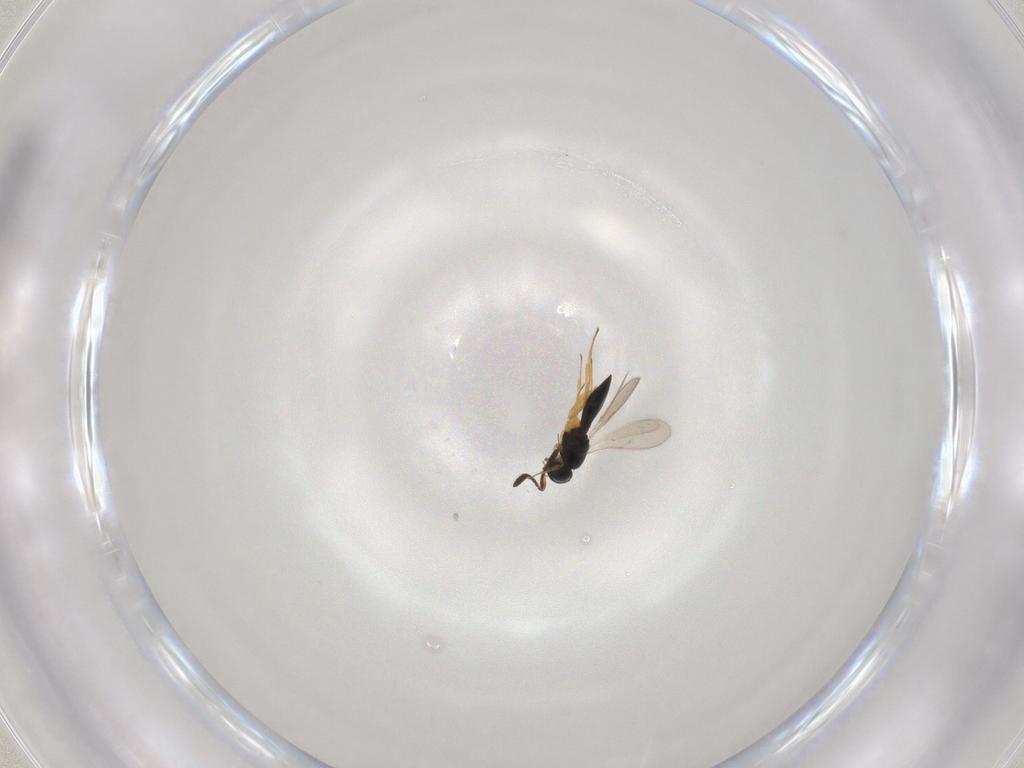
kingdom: Animalia
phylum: Arthropoda
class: Insecta
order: Hymenoptera
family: Scelionidae
